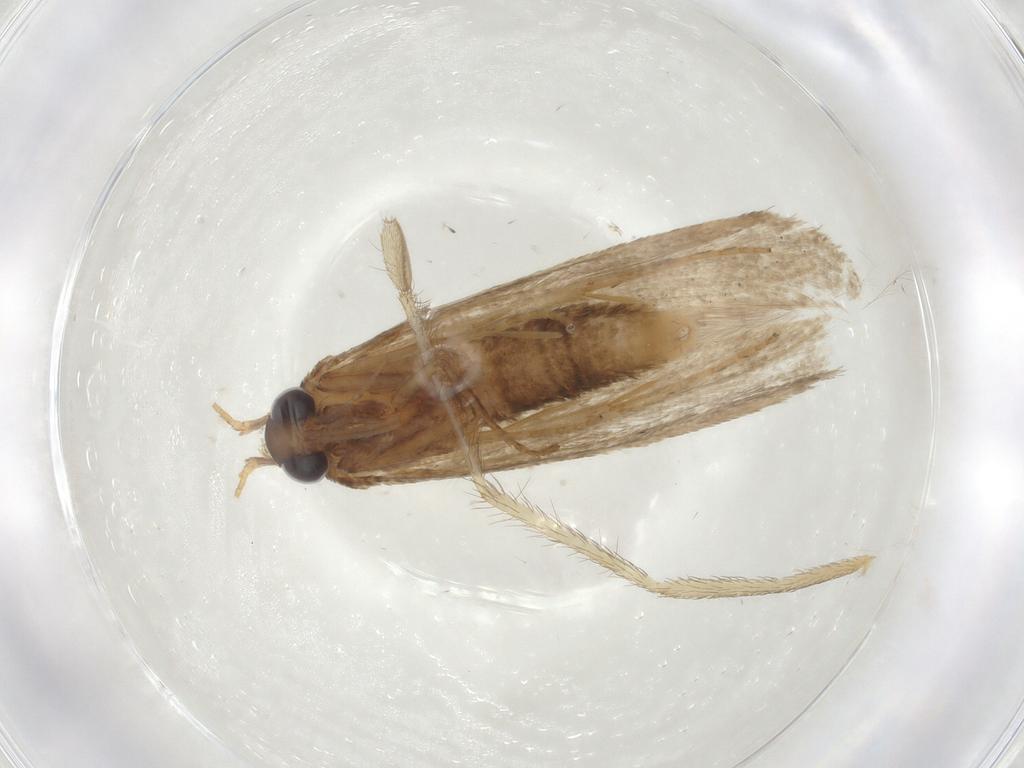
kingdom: Animalia
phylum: Arthropoda
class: Insecta
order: Lepidoptera
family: Coleophoridae
